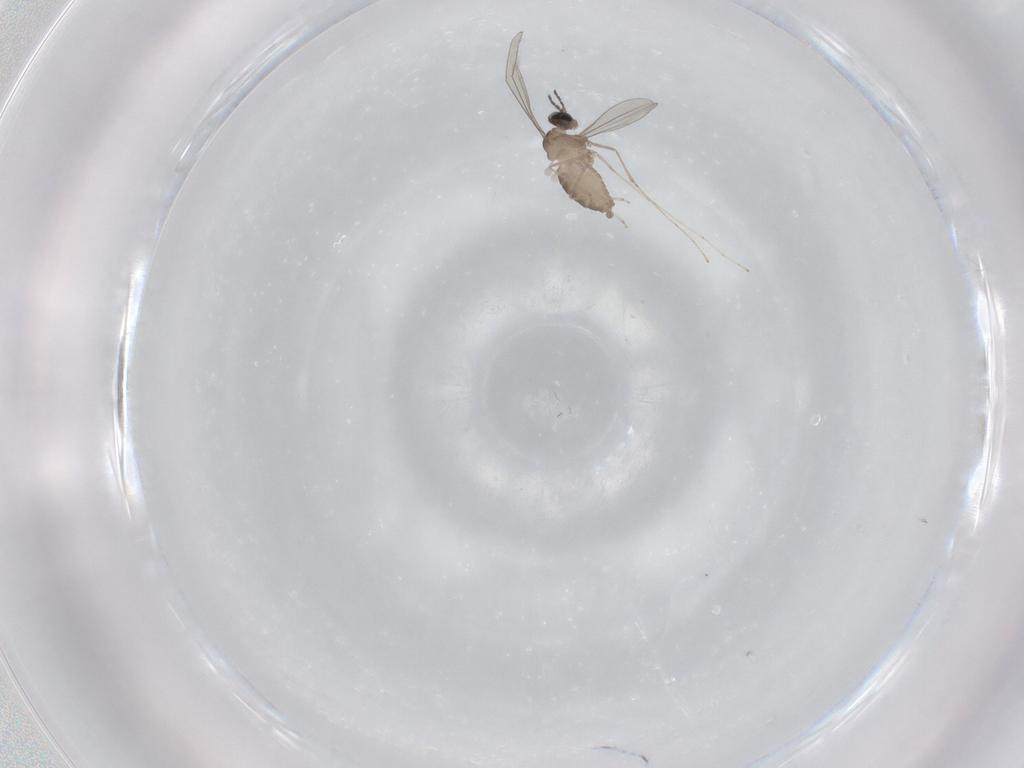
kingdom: Animalia
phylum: Arthropoda
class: Insecta
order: Diptera
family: Cecidomyiidae
